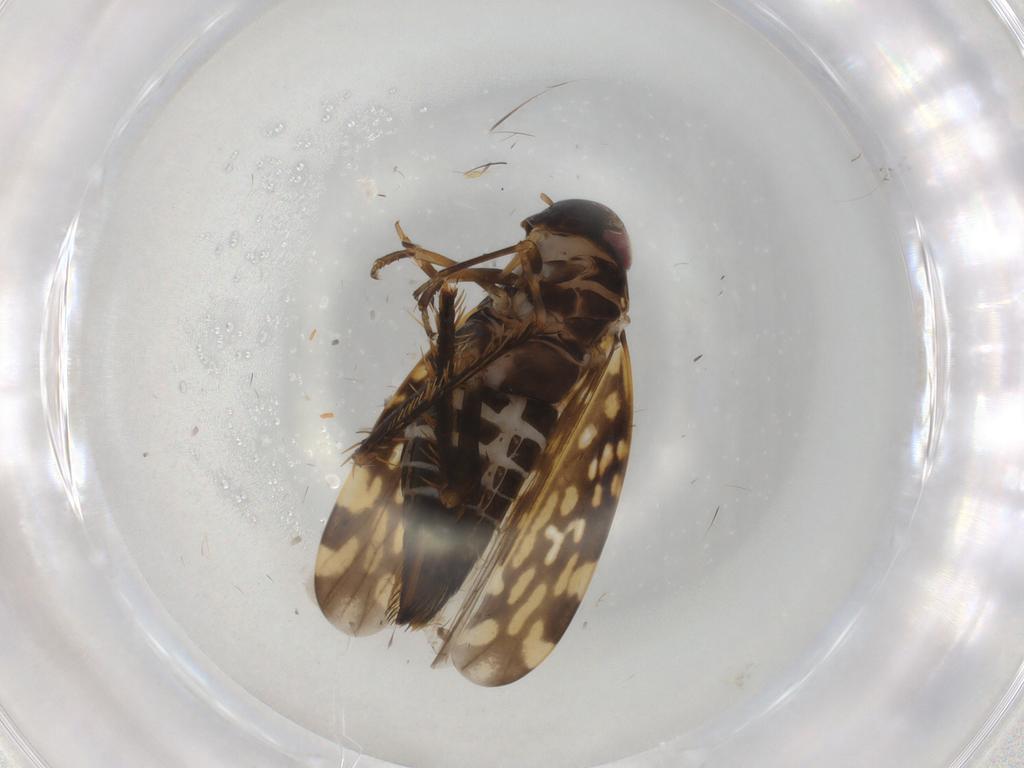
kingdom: Animalia
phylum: Arthropoda
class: Insecta
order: Hemiptera
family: Cicadellidae
